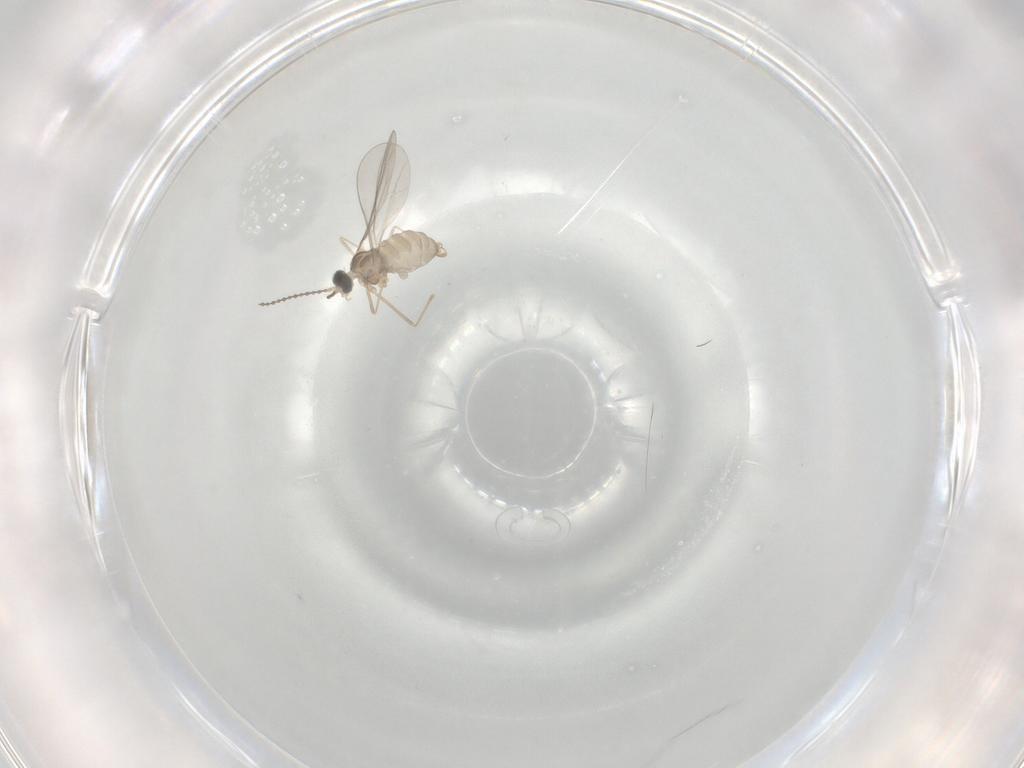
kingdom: Animalia
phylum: Arthropoda
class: Insecta
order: Diptera
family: Cecidomyiidae
